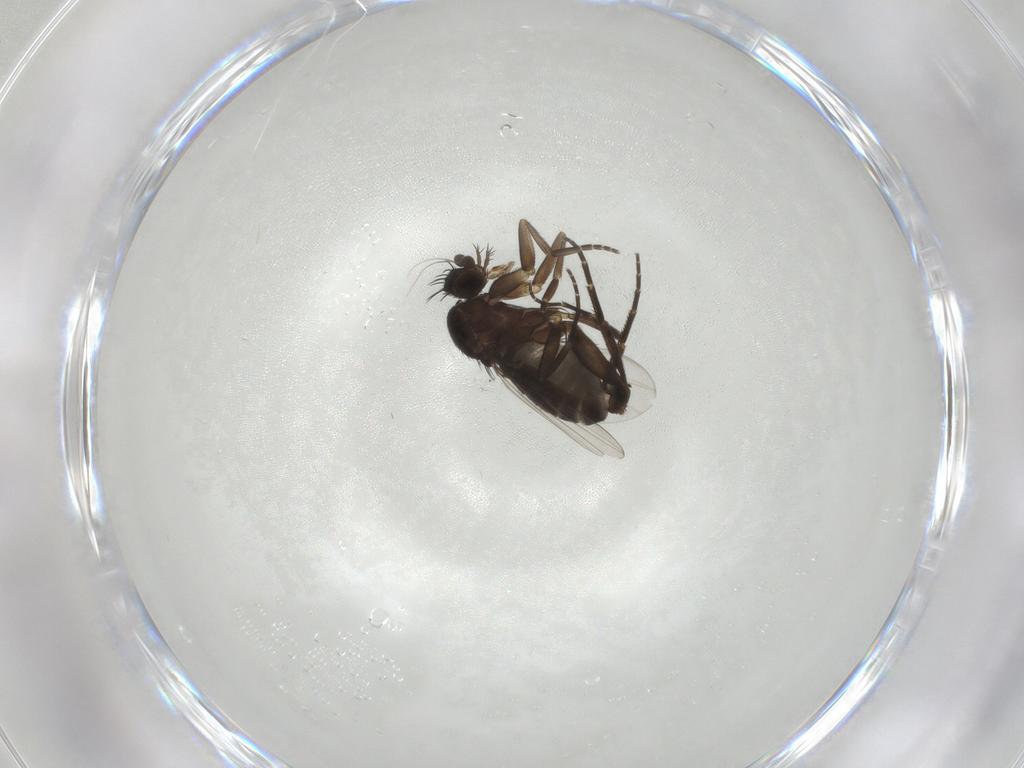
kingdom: Animalia
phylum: Arthropoda
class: Insecta
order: Diptera
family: Phoridae
